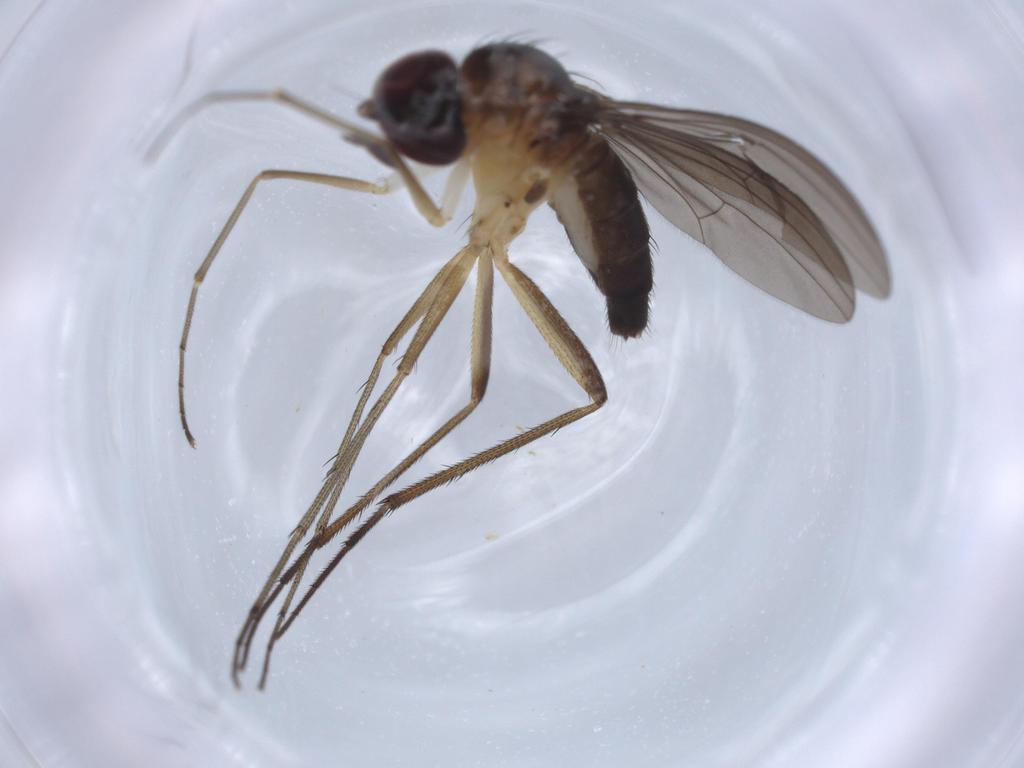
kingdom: Animalia
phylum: Arthropoda
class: Insecta
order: Diptera
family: Dolichopodidae
